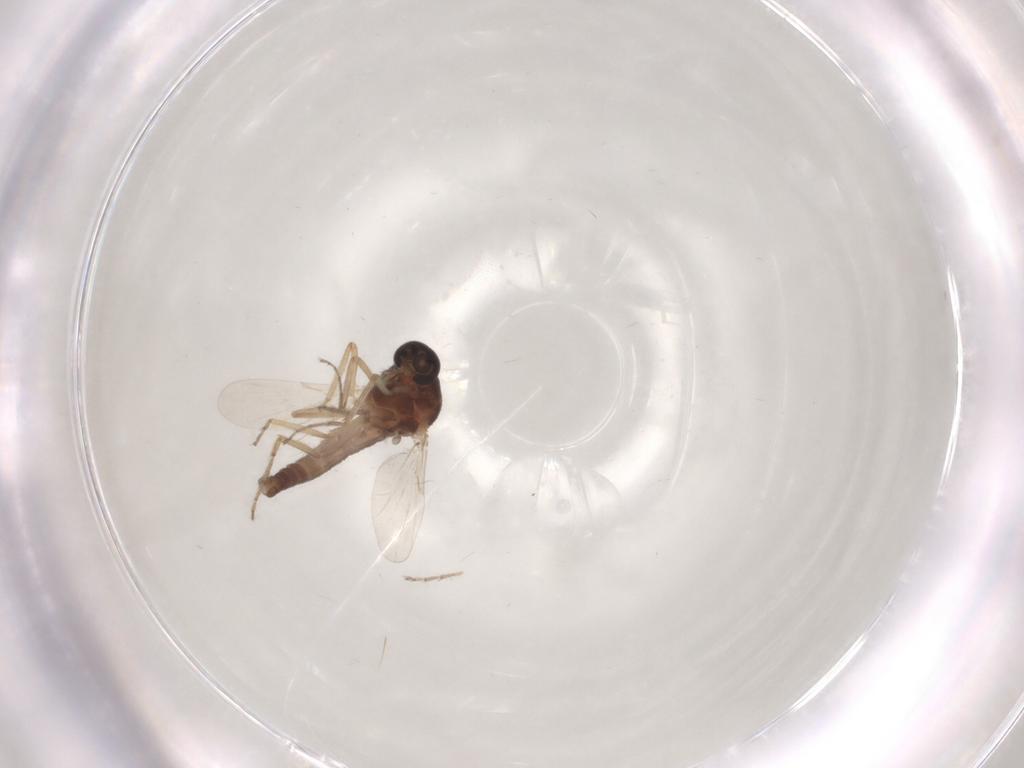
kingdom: Animalia
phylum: Arthropoda
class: Insecta
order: Diptera
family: Ceratopogonidae
